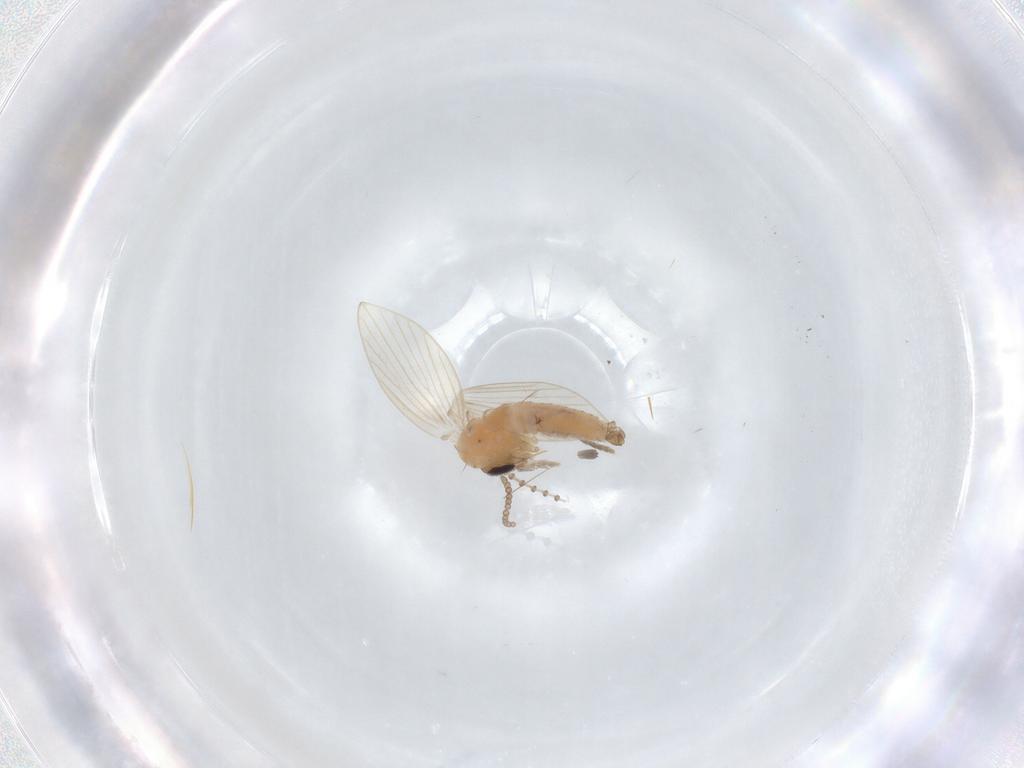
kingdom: Animalia
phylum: Arthropoda
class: Insecta
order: Diptera
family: Psychodidae
